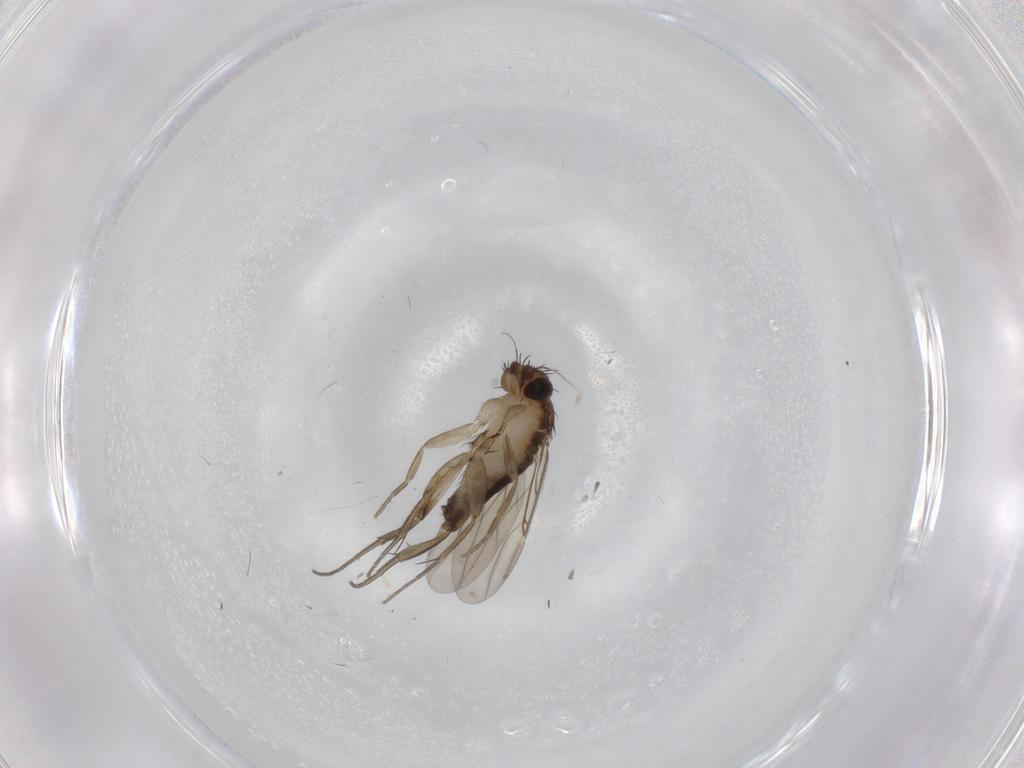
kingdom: Animalia
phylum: Arthropoda
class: Insecta
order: Diptera
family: Phoridae
